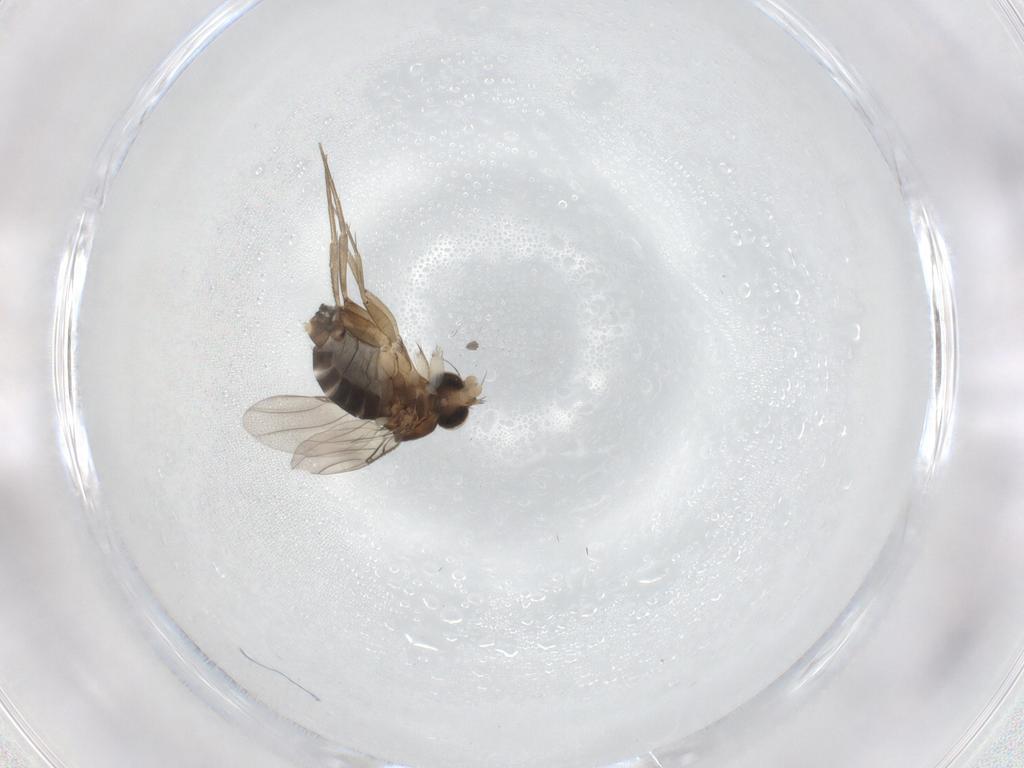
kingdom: Animalia
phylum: Arthropoda
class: Insecta
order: Diptera
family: Phoridae
